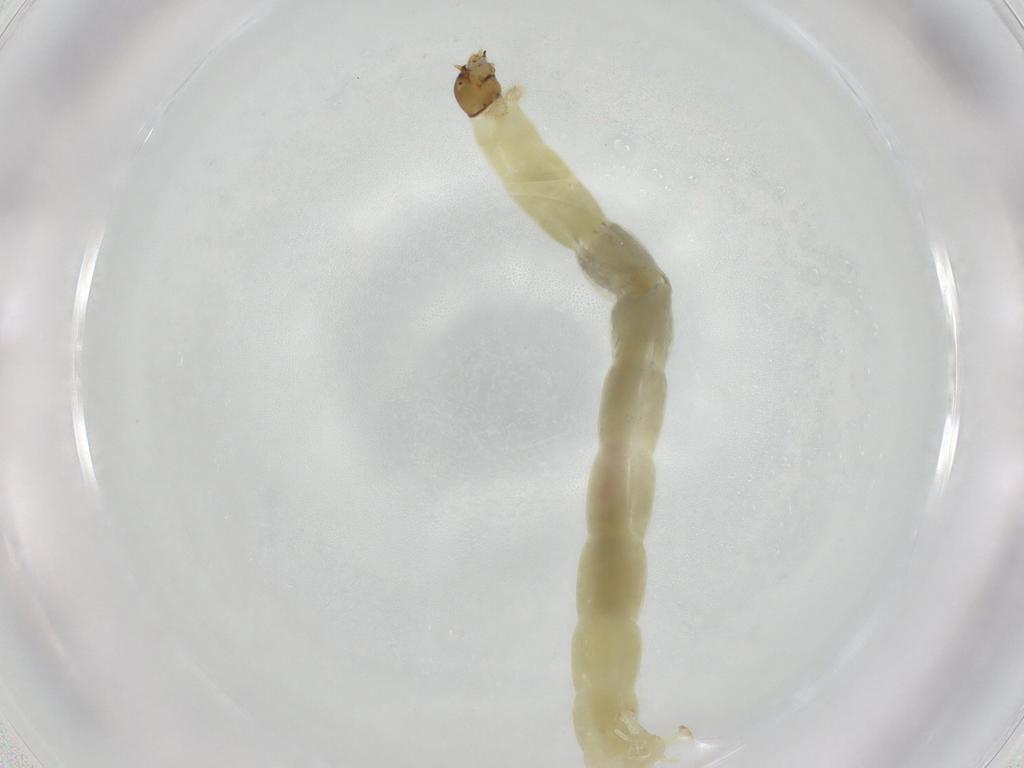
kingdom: Animalia
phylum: Arthropoda
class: Insecta
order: Diptera
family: Chironomidae
